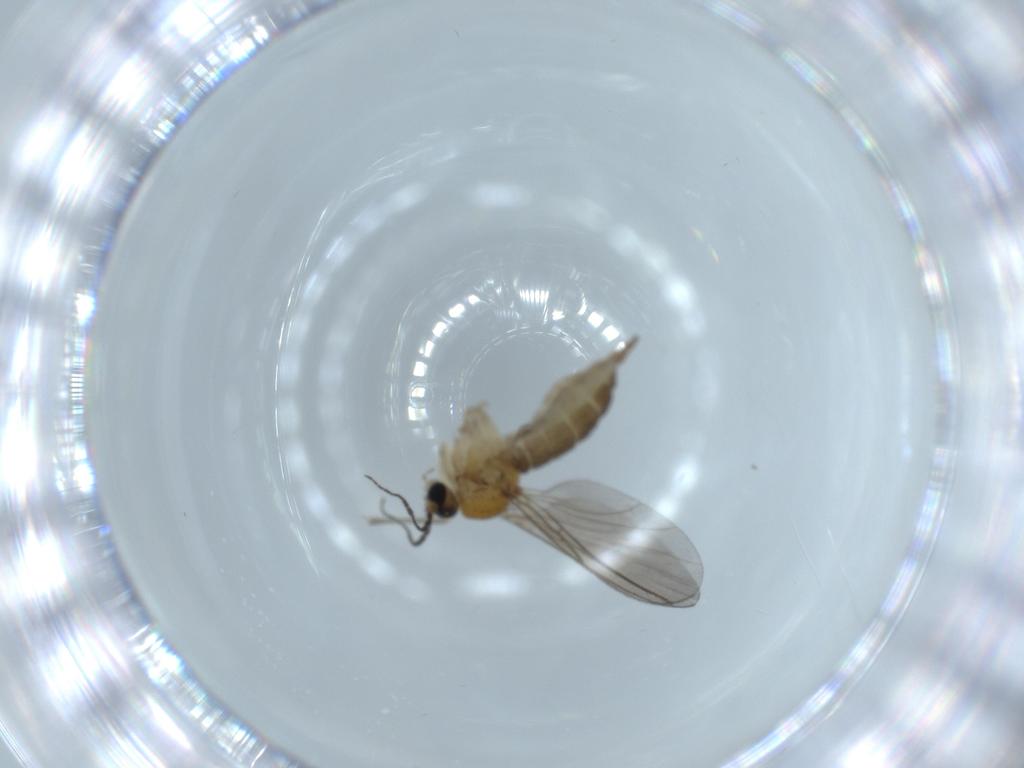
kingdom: Animalia
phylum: Arthropoda
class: Insecta
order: Diptera
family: Sciaridae
